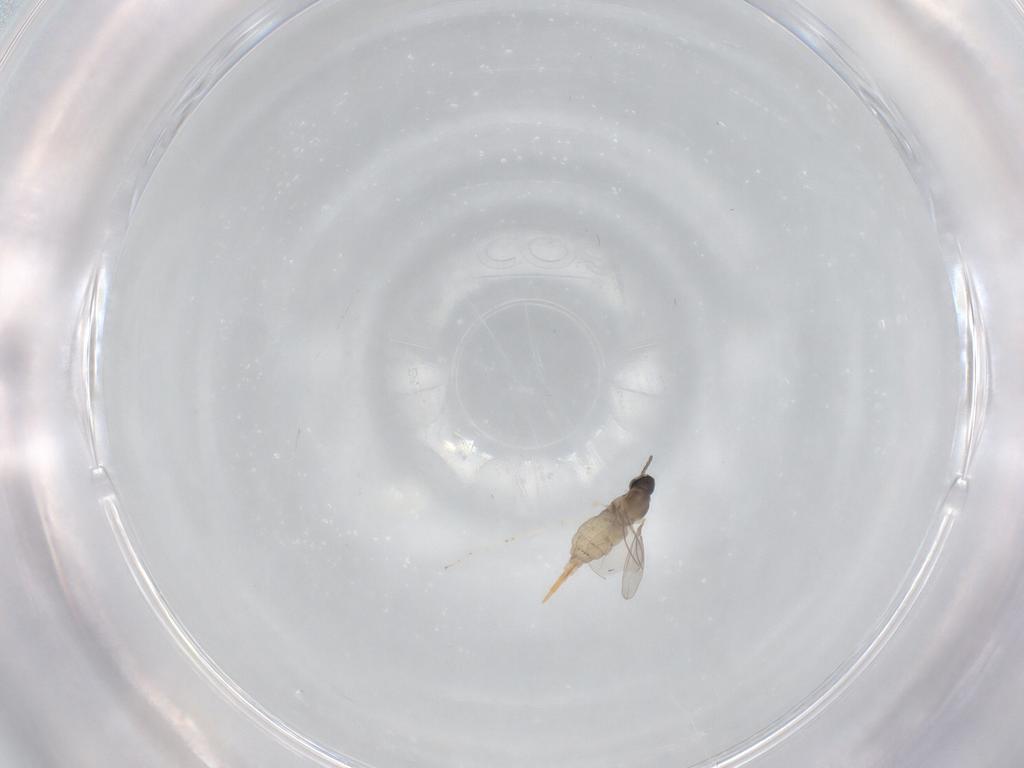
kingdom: Animalia
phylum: Arthropoda
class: Insecta
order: Diptera
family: Cecidomyiidae
